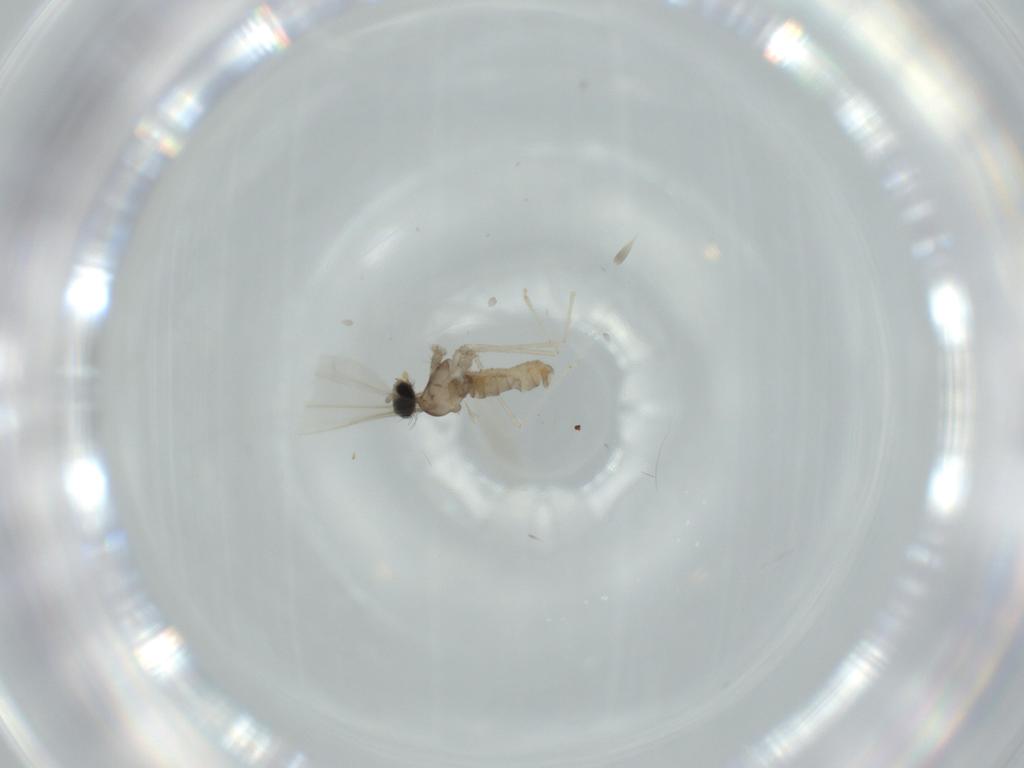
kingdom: Animalia
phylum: Arthropoda
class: Insecta
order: Diptera
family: Cecidomyiidae
